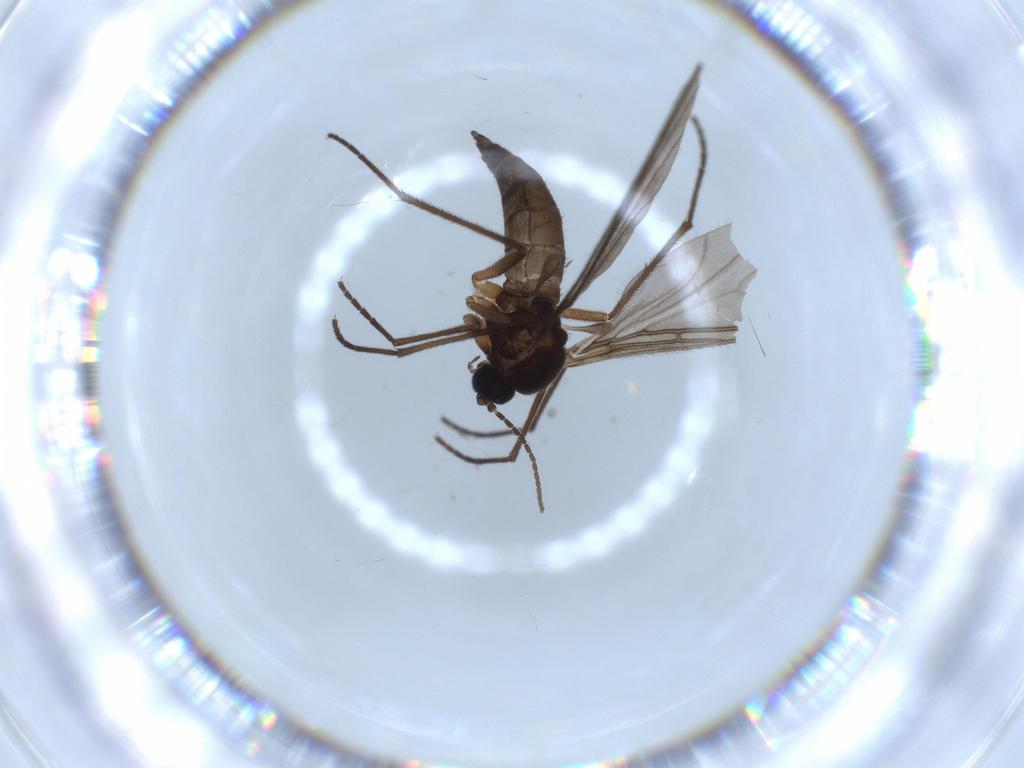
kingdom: Animalia
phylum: Arthropoda
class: Insecta
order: Diptera
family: Sciaridae
